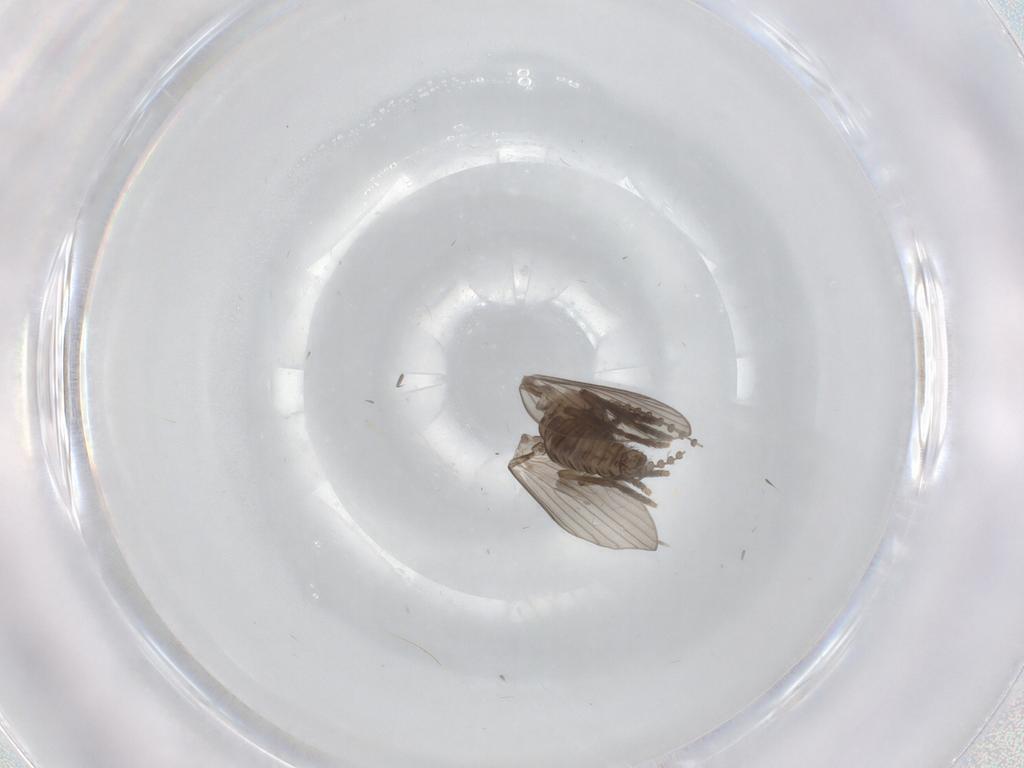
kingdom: Animalia
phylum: Arthropoda
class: Insecta
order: Diptera
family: Psychodidae
